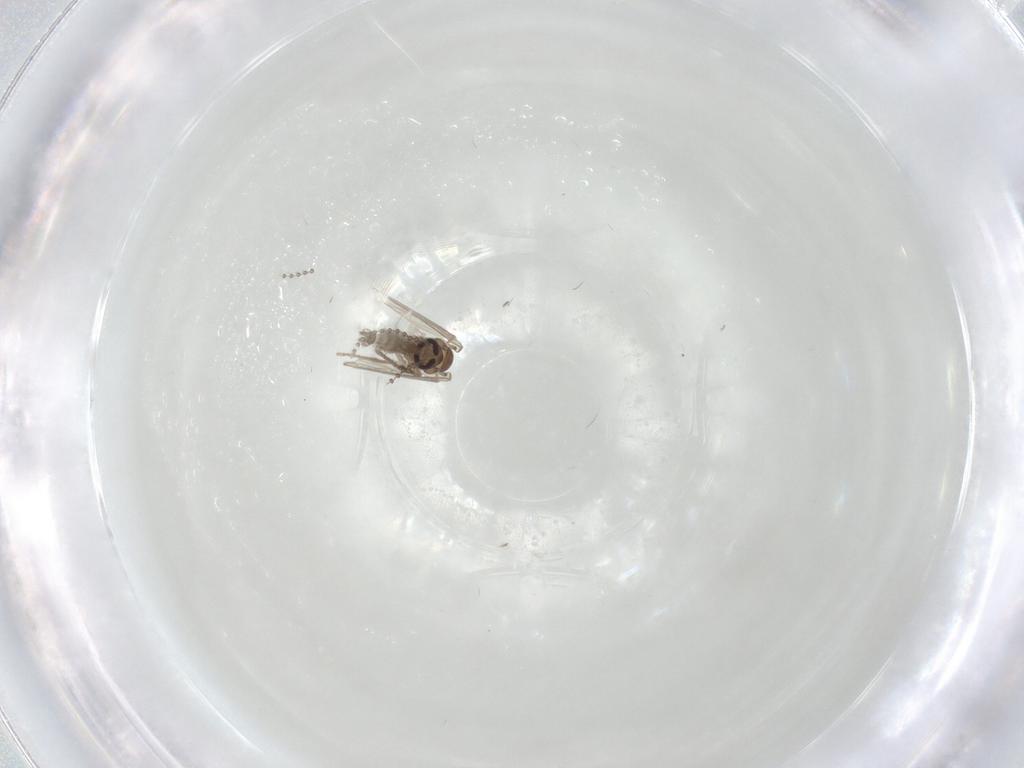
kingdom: Animalia
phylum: Arthropoda
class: Insecta
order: Diptera
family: Psychodidae
